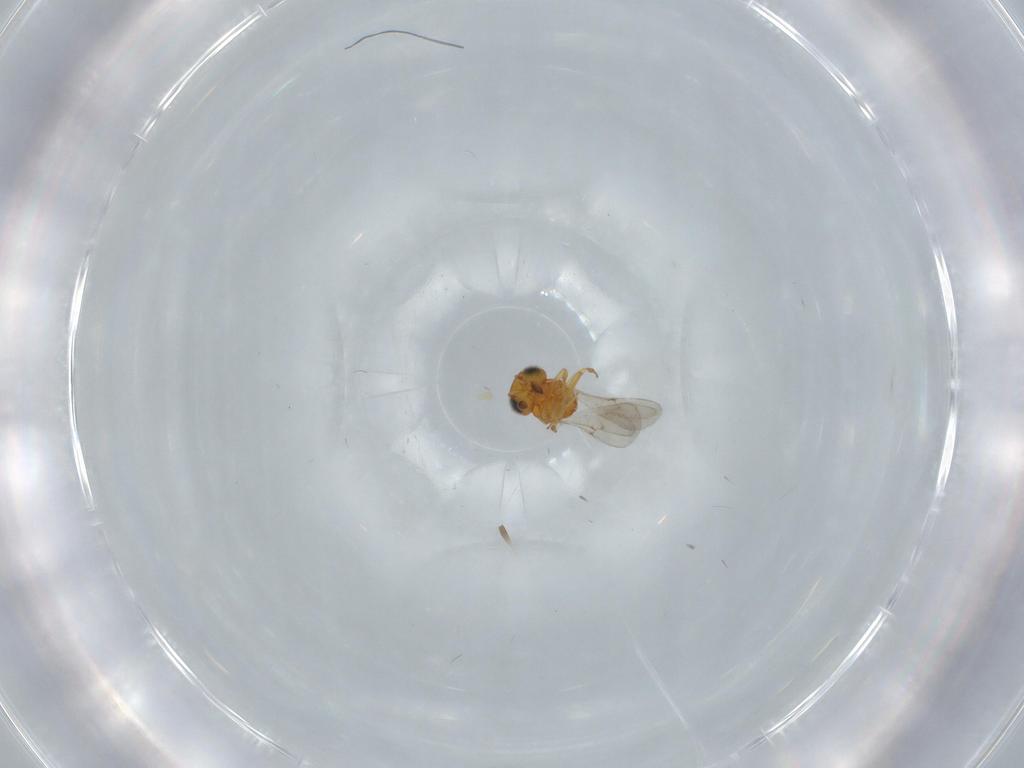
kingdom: Animalia
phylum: Arthropoda
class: Insecta
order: Hymenoptera
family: Scelionidae
